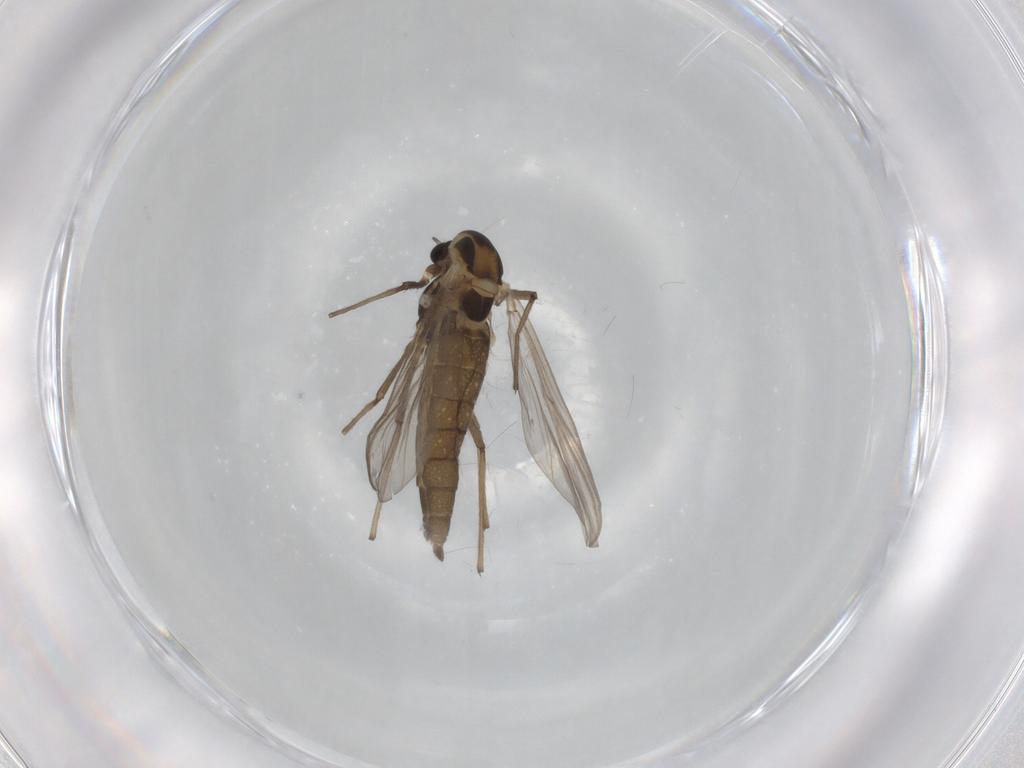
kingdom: Animalia
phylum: Arthropoda
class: Insecta
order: Diptera
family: Chironomidae
